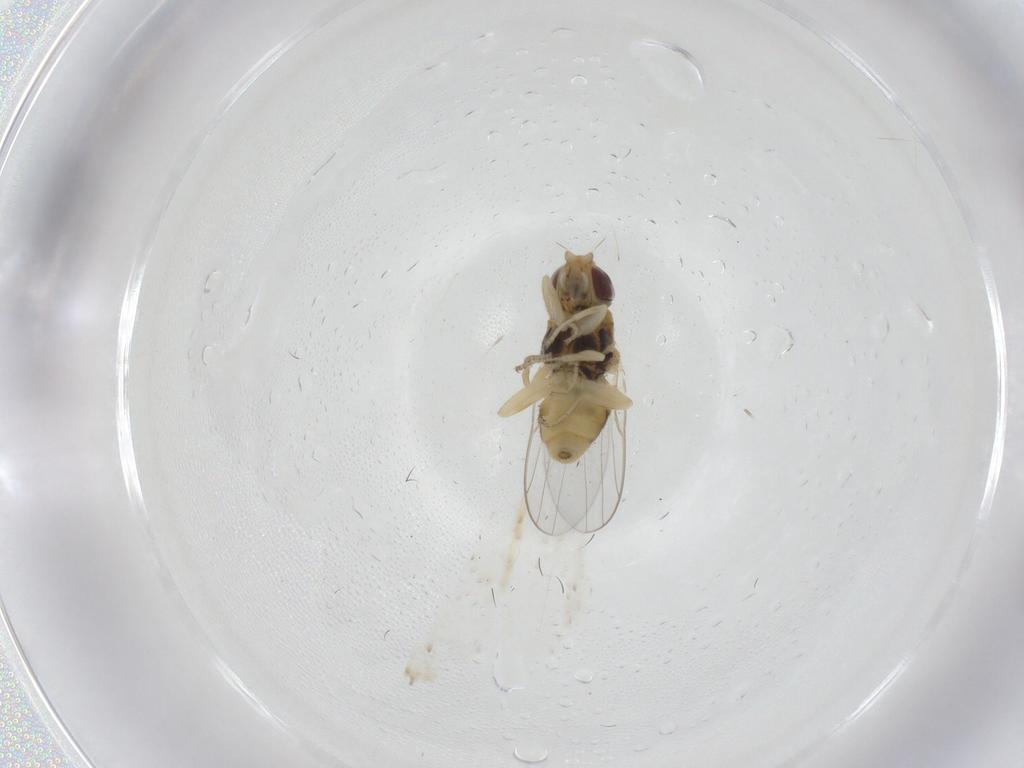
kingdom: Animalia
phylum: Arthropoda
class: Insecta
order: Diptera
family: Chloropidae
